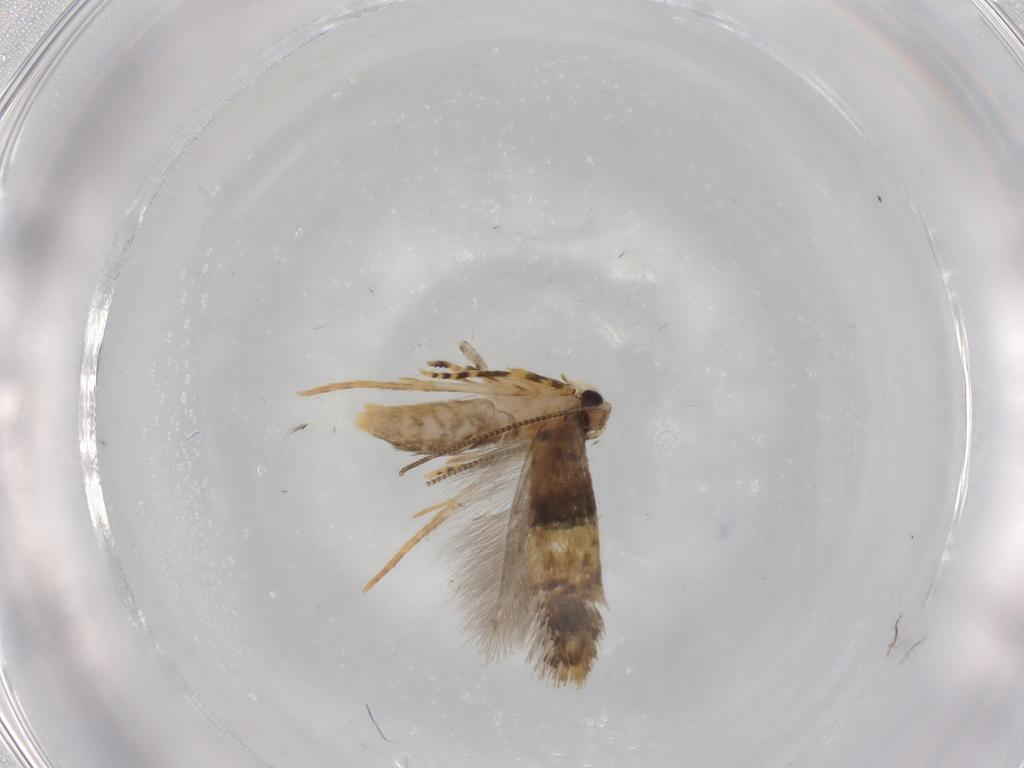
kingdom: Animalia
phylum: Arthropoda
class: Insecta
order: Lepidoptera
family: Tineidae
